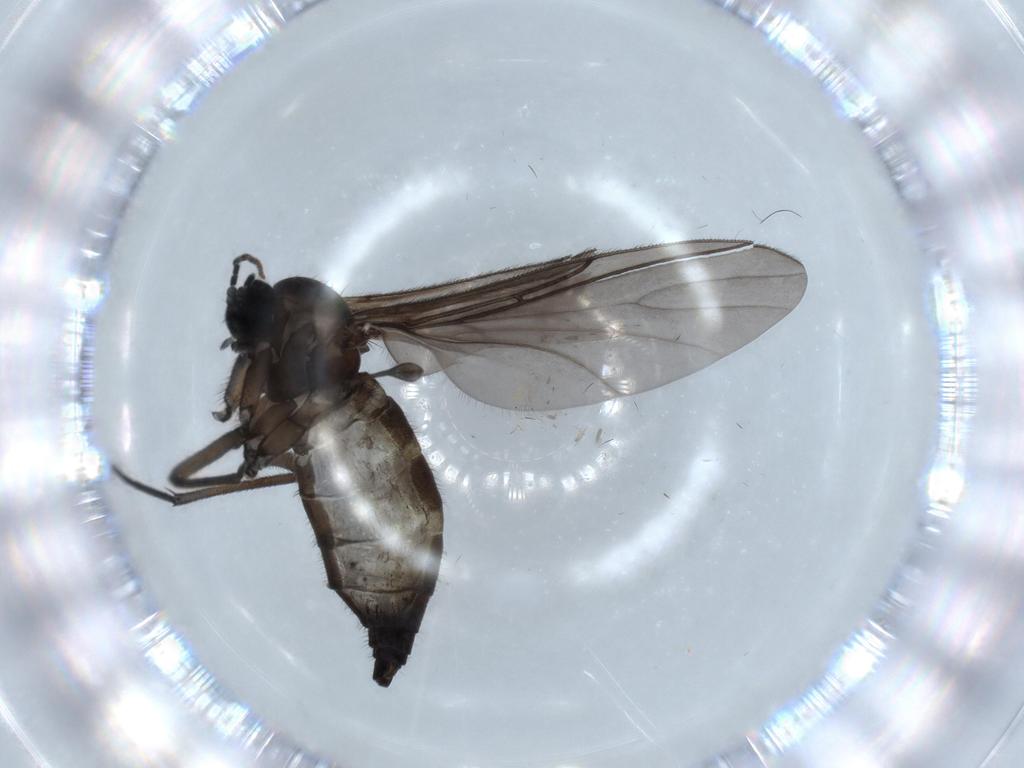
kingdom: Animalia
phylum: Arthropoda
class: Insecta
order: Diptera
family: Sciaridae
